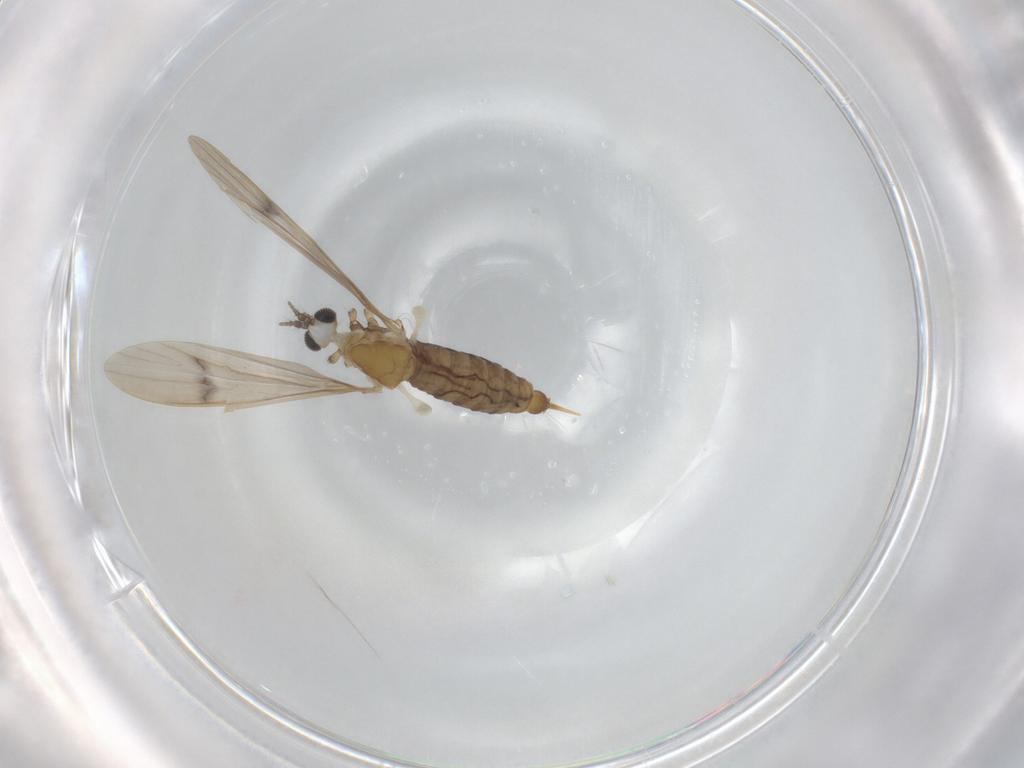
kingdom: Animalia
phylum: Arthropoda
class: Insecta
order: Diptera
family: Limoniidae
